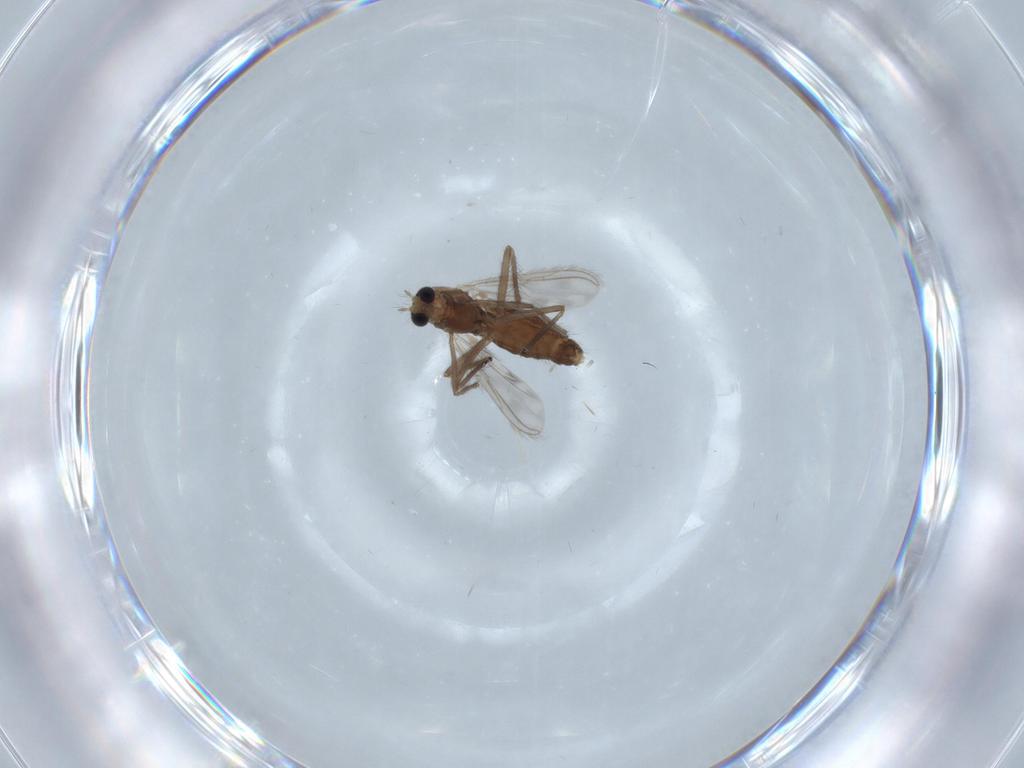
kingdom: Animalia
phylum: Arthropoda
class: Insecta
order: Diptera
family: Chironomidae
